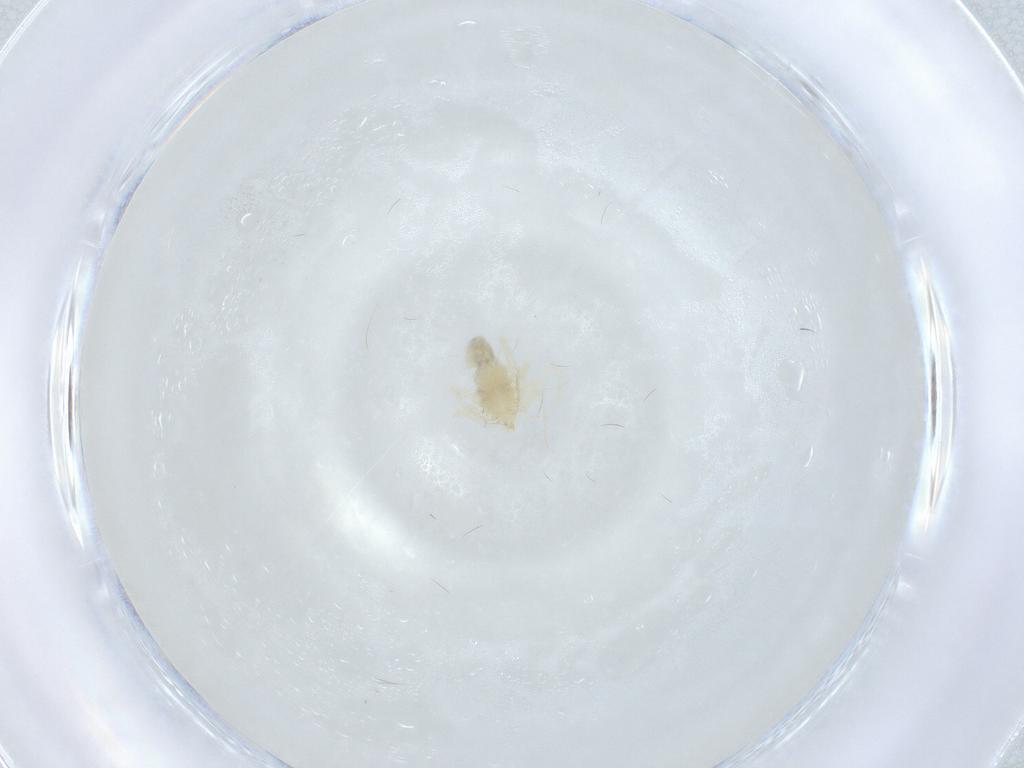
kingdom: Animalia
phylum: Arthropoda
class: Arachnida
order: Trombidiformes
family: Anystidae
